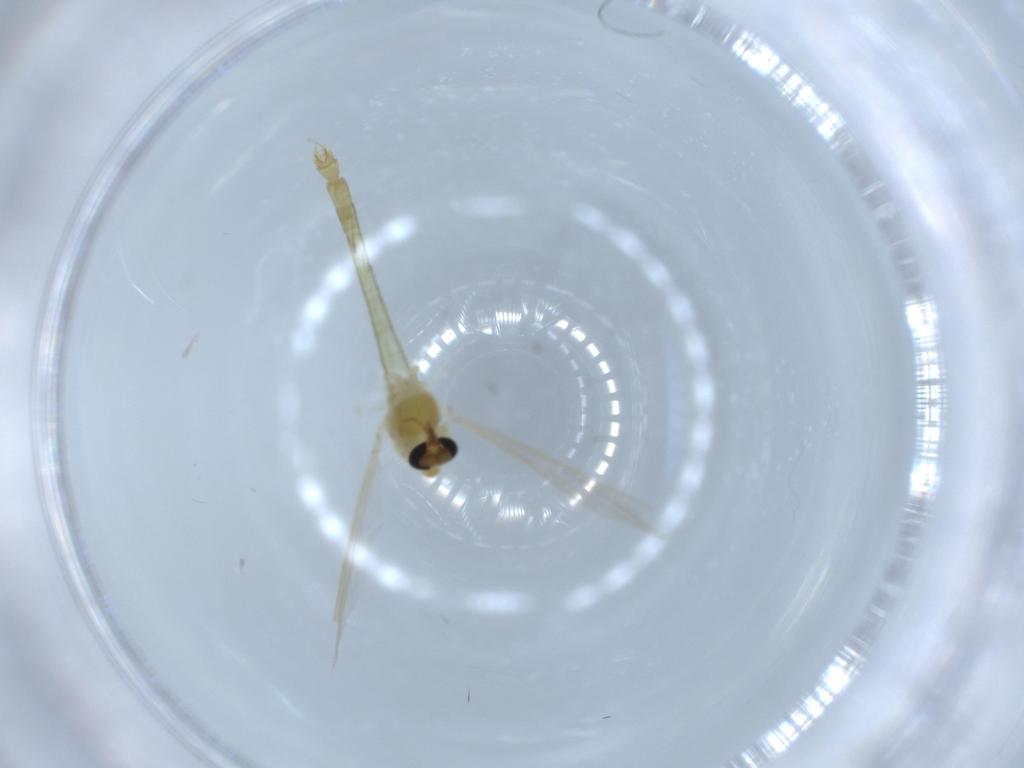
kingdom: Animalia
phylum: Arthropoda
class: Insecta
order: Diptera
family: Chironomidae
